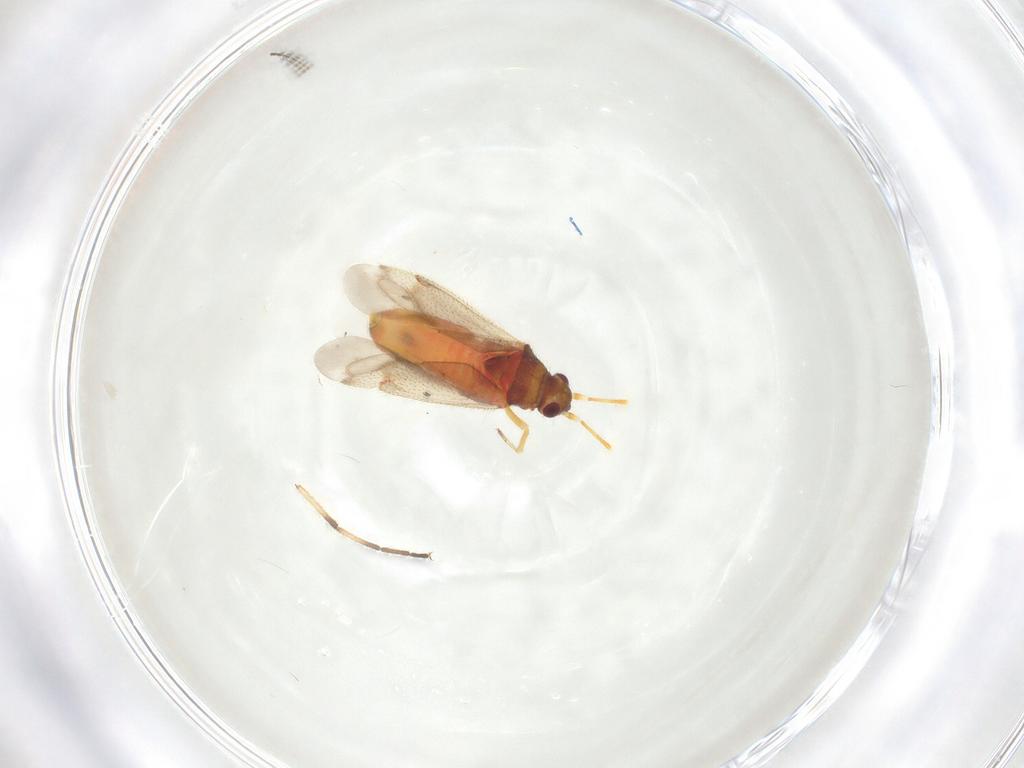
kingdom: Animalia
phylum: Arthropoda
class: Insecta
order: Hemiptera
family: Miridae
